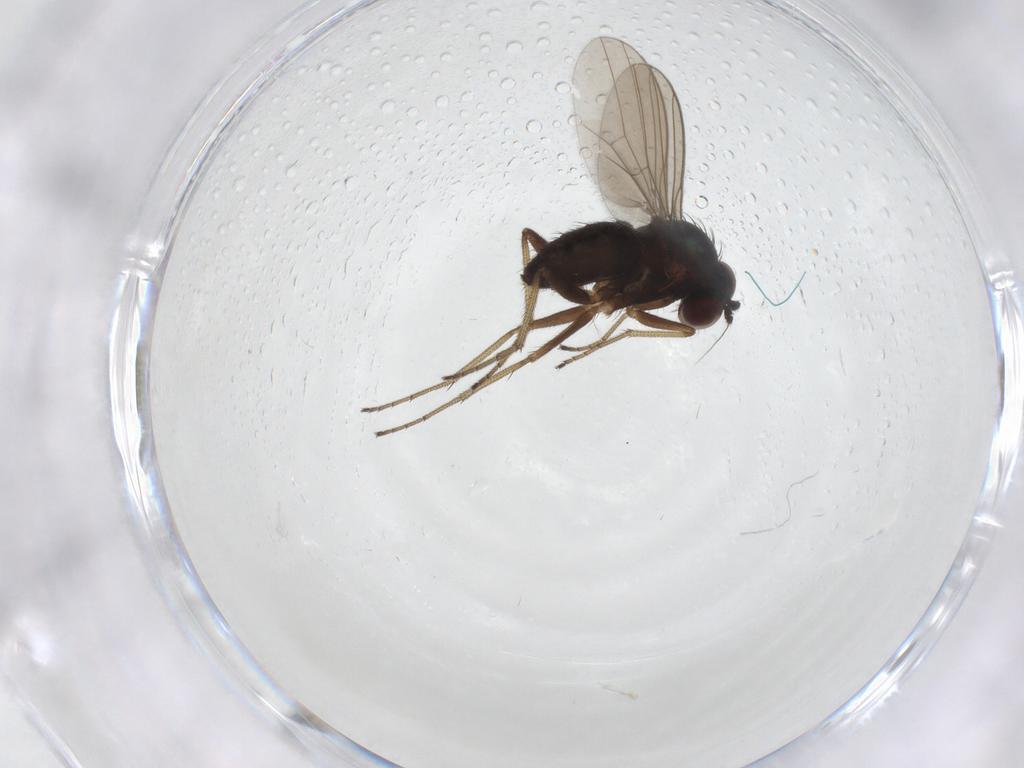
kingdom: Animalia
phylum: Arthropoda
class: Insecta
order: Diptera
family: Dolichopodidae
